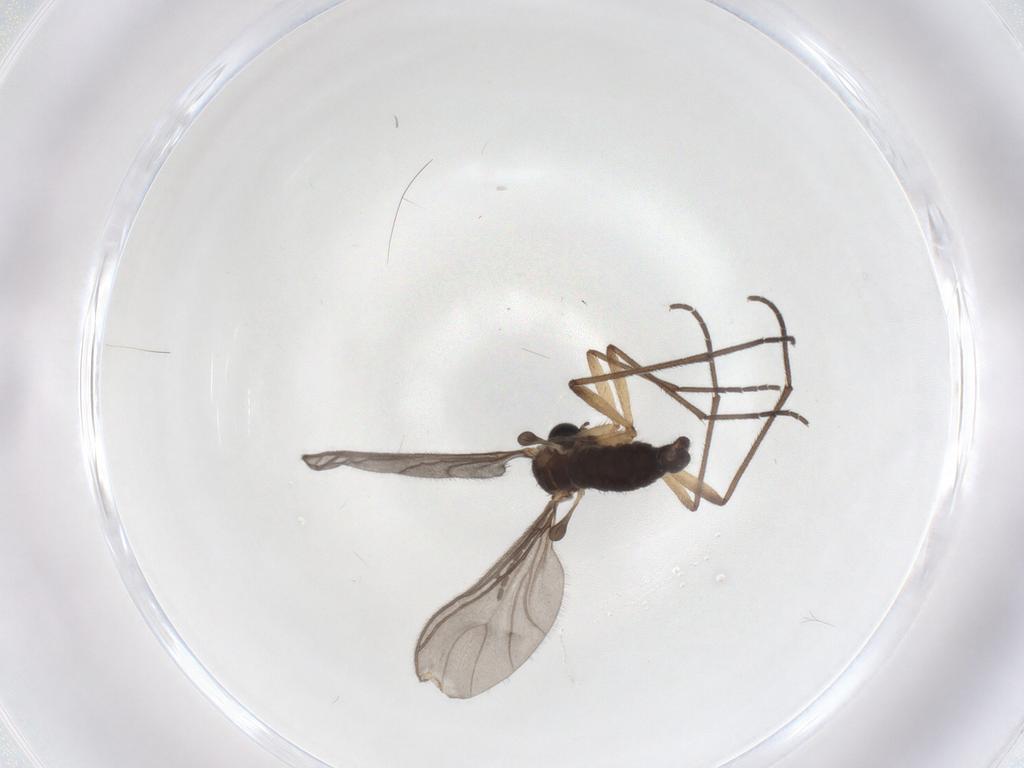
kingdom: Animalia
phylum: Arthropoda
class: Insecta
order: Diptera
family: Sciaridae
